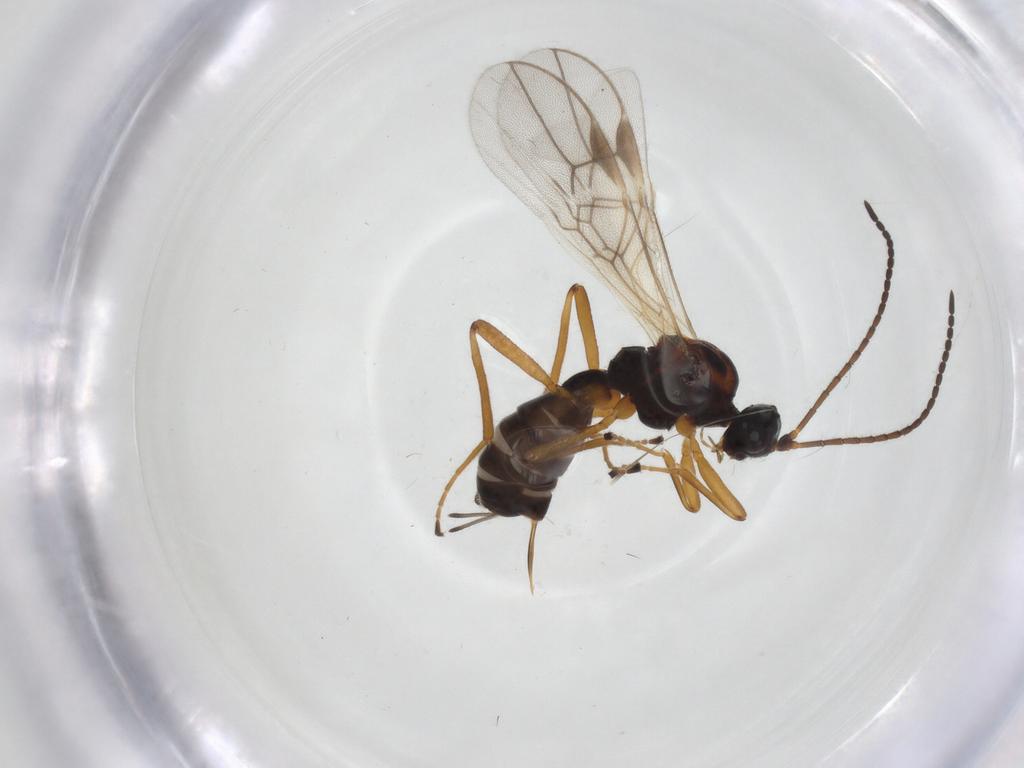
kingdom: Animalia
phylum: Arthropoda
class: Insecta
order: Hymenoptera
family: Braconidae
